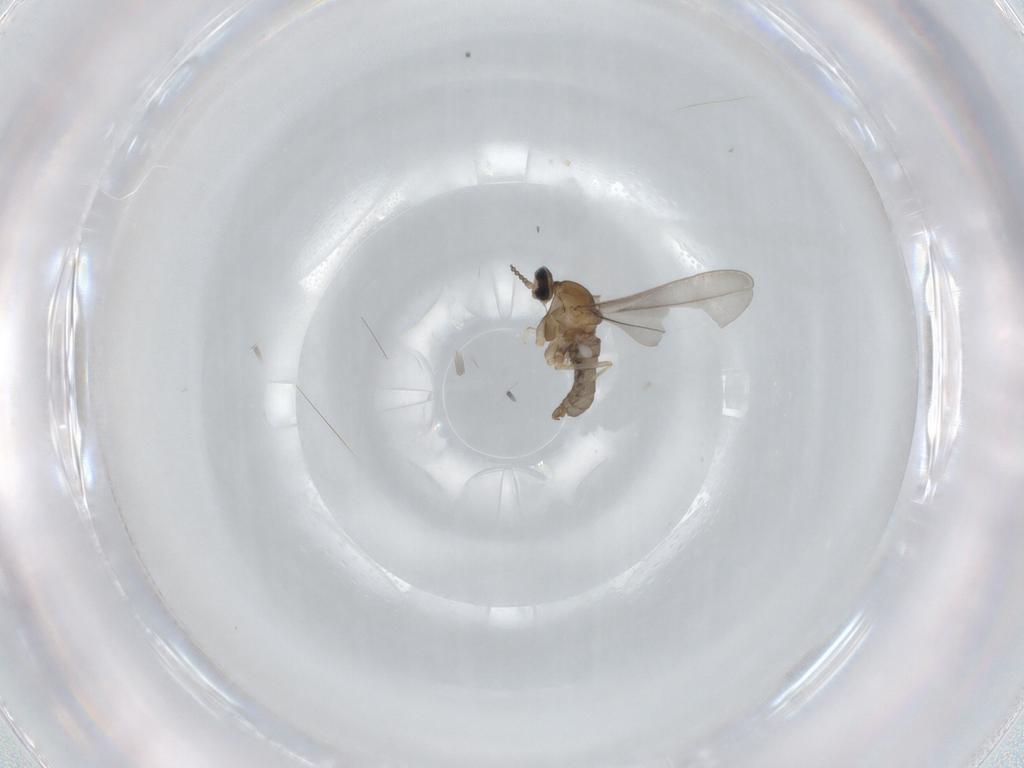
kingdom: Animalia
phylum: Arthropoda
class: Insecta
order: Diptera
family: Cecidomyiidae
